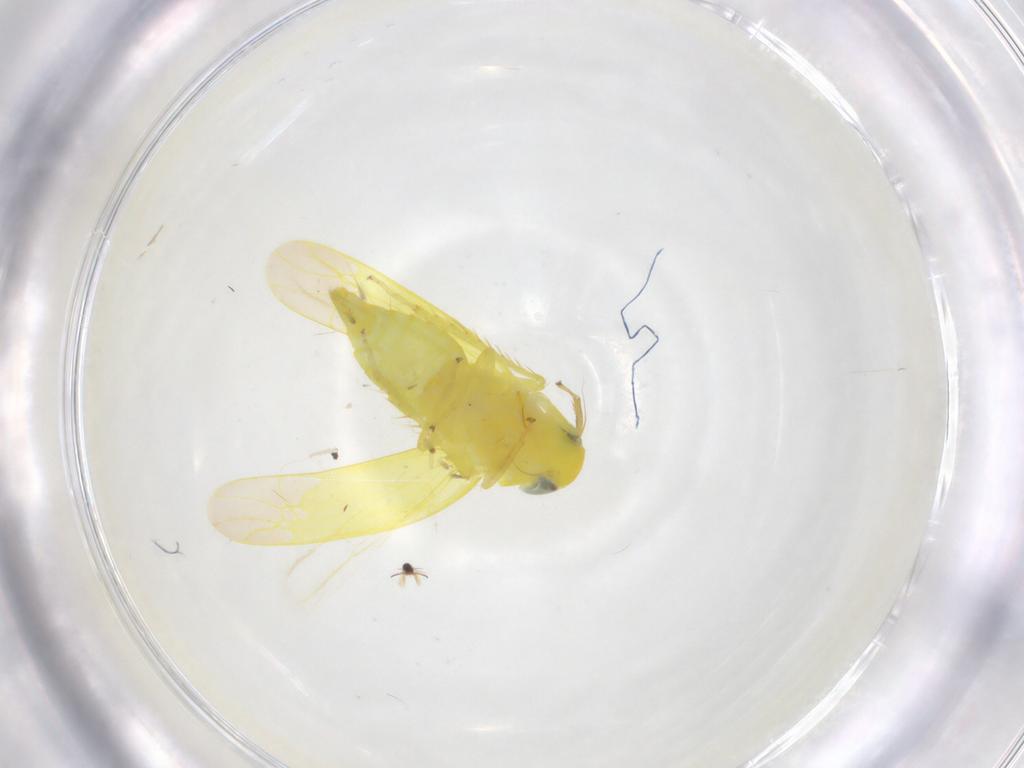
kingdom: Animalia
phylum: Arthropoda
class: Insecta
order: Hemiptera
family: Cicadellidae
